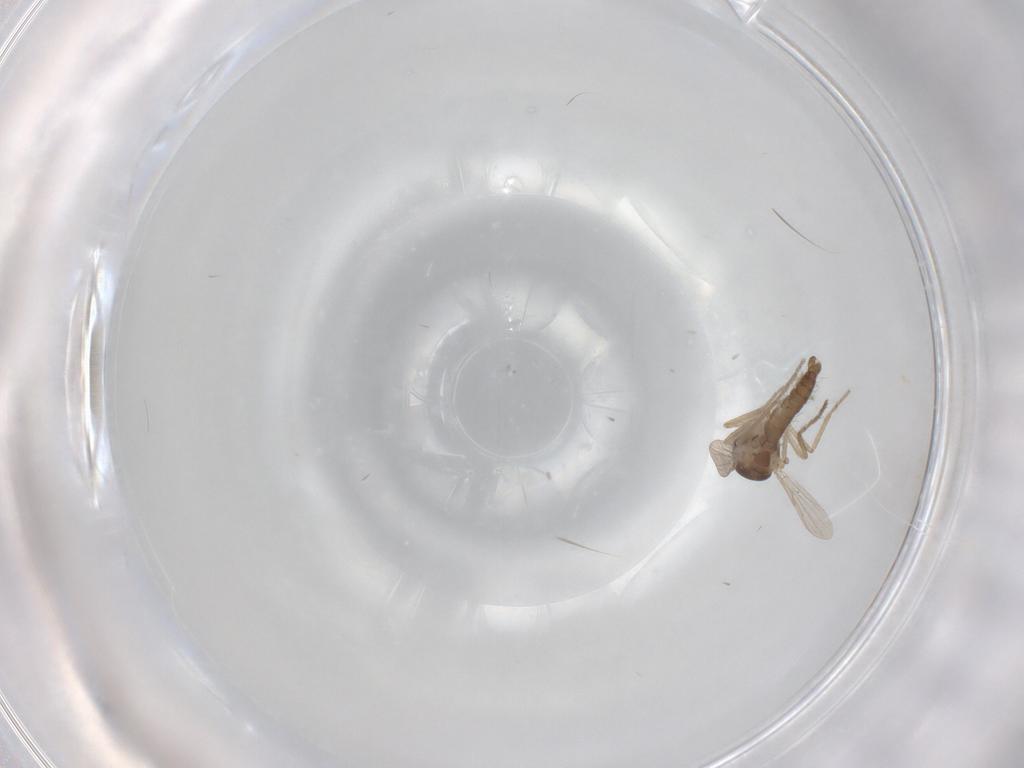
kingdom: Animalia
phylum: Arthropoda
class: Insecta
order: Diptera
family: Ceratopogonidae
